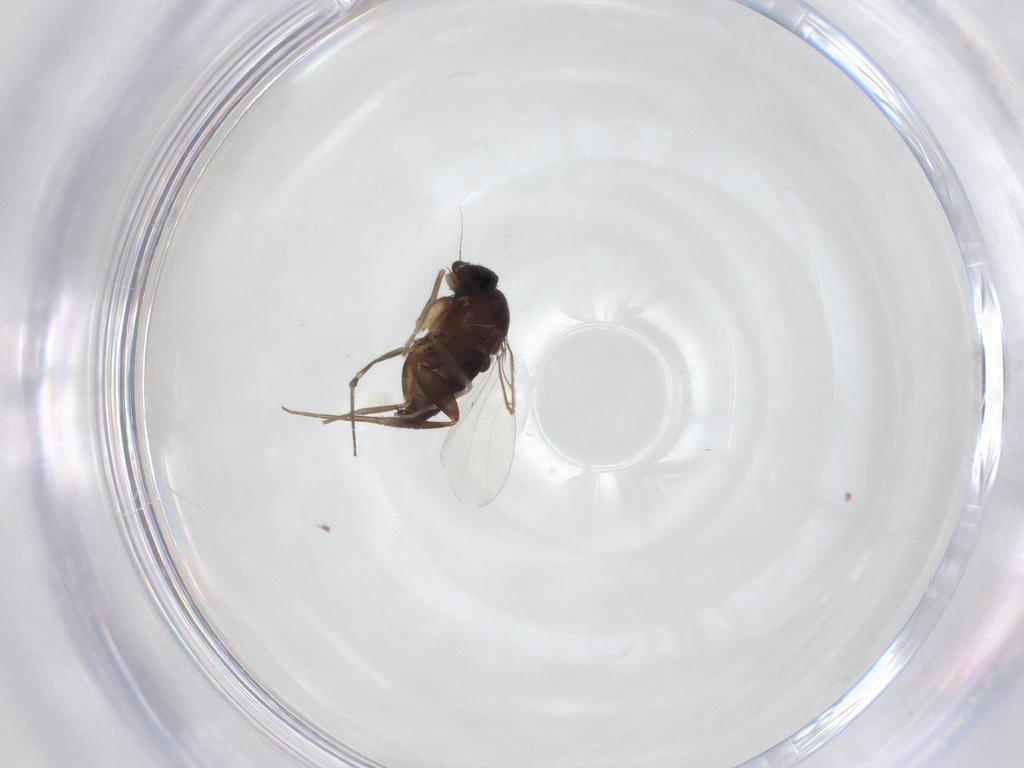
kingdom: Animalia
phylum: Arthropoda
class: Insecta
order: Diptera
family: Phoridae
